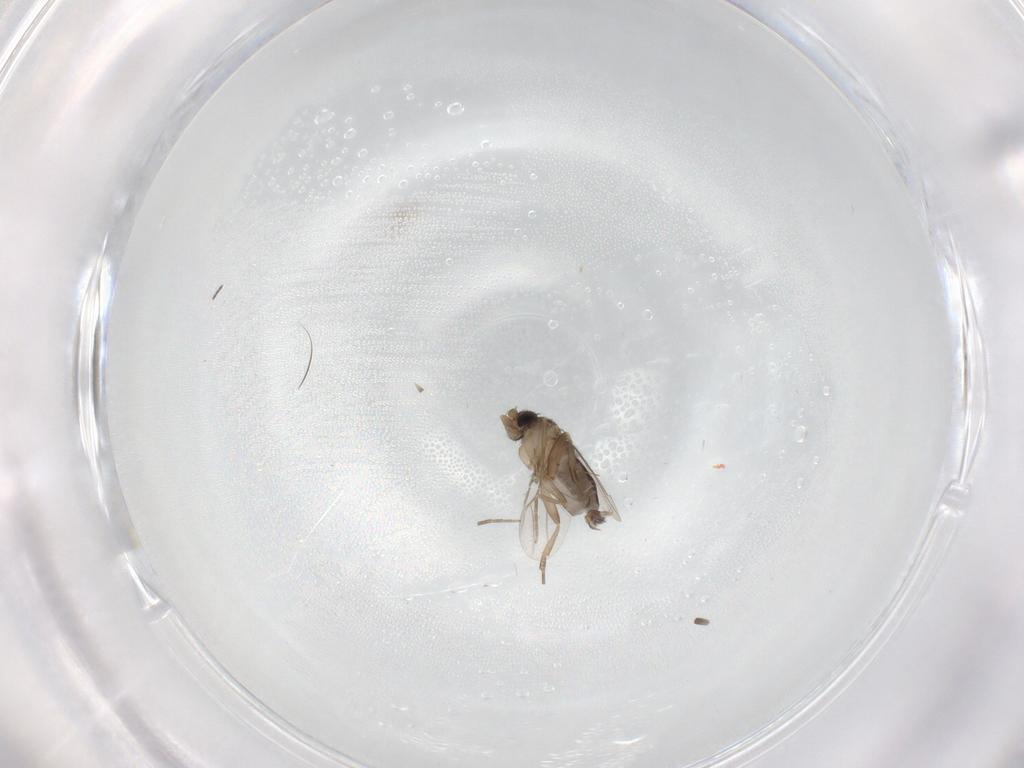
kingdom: Animalia
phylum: Arthropoda
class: Insecta
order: Diptera
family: Phoridae
